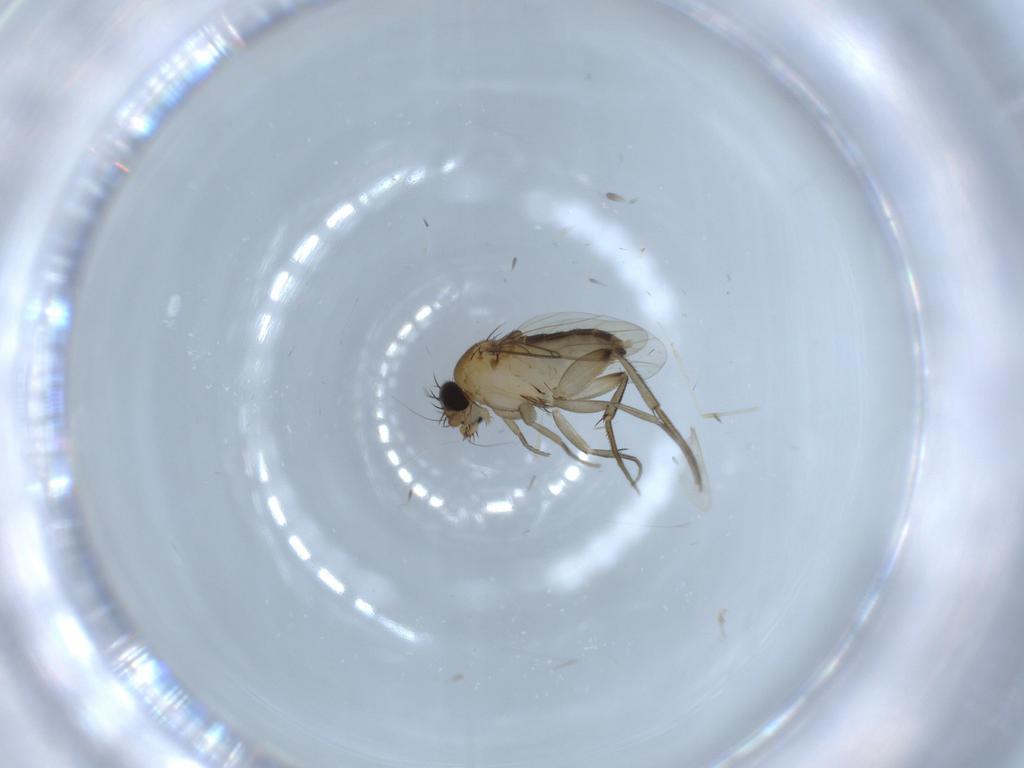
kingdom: Animalia
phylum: Arthropoda
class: Insecta
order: Diptera
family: Phoridae
